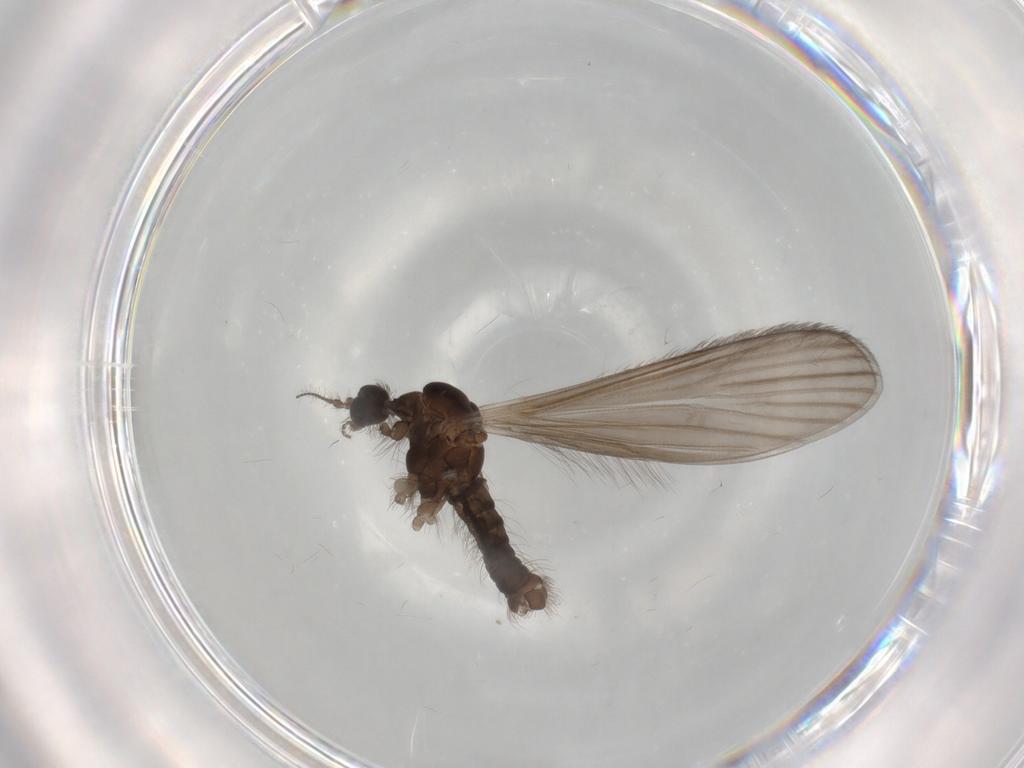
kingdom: Animalia
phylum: Arthropoda
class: Insecta
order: Diptera
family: Limoniidae
